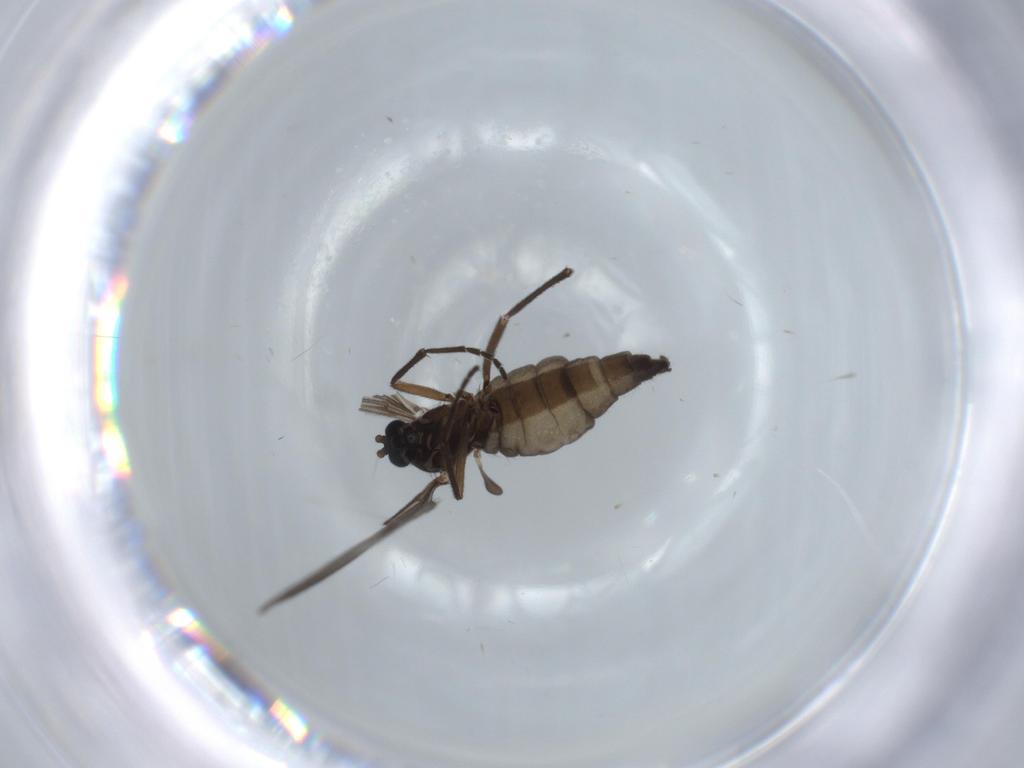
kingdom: Animalia
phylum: Arthropoda
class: Insecta
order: Diptera
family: Sciaridae
